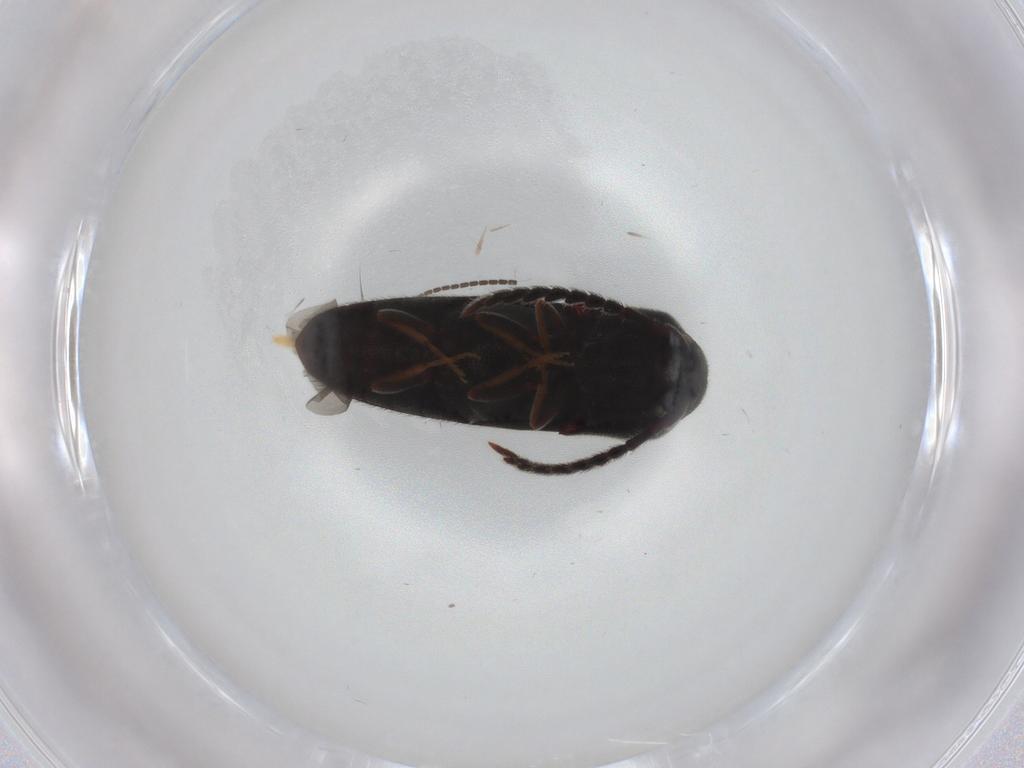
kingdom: Animalia
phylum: Arthropoda
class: Insecta
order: Coleoptera
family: Eucnemidae
